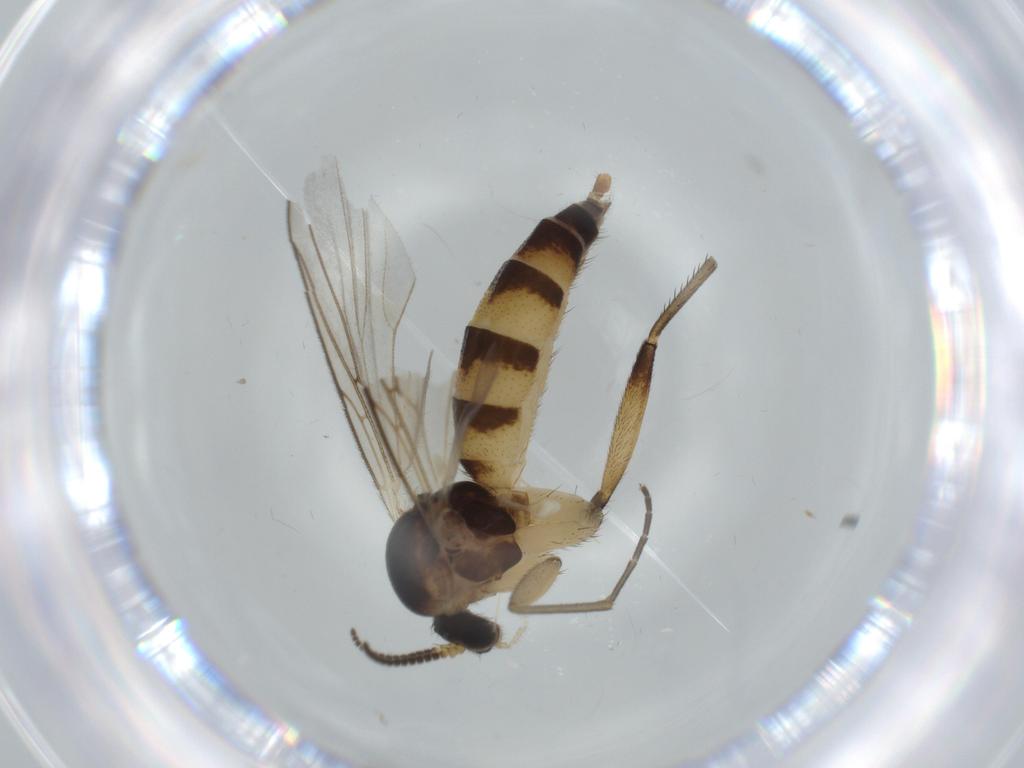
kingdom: Animalia
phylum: Arthropoda
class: Insecta
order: Diptera
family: Mycetophilidae
